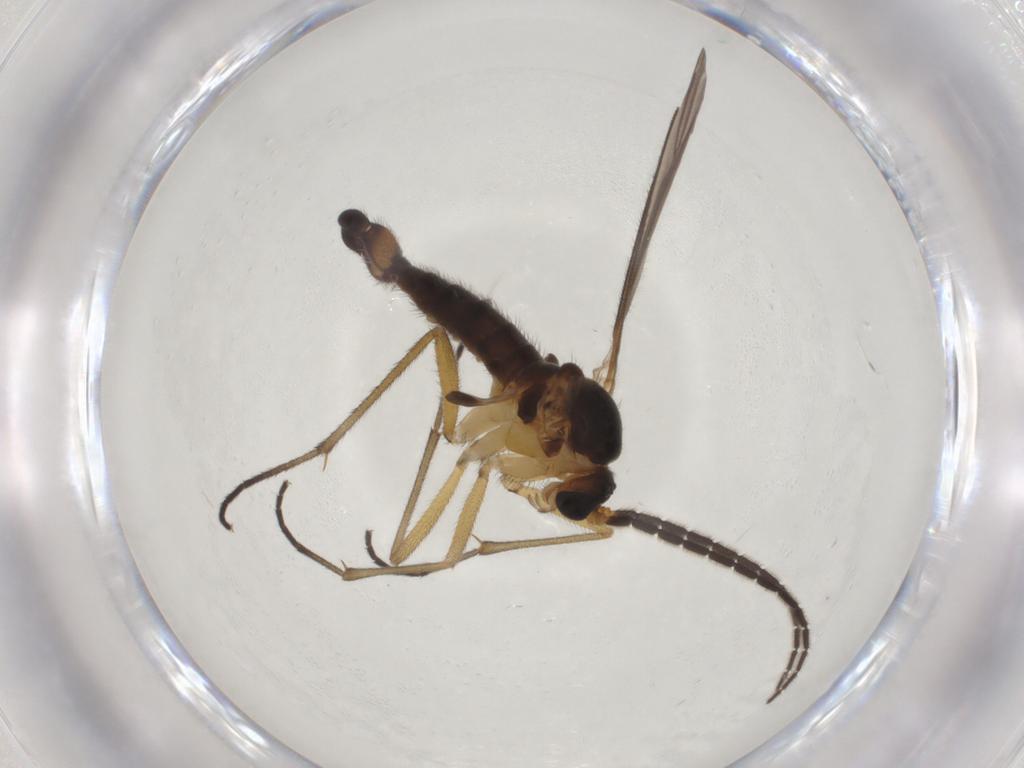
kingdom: Animalia
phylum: Arthropoda
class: Insecta
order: Diptera
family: Sciaridae
